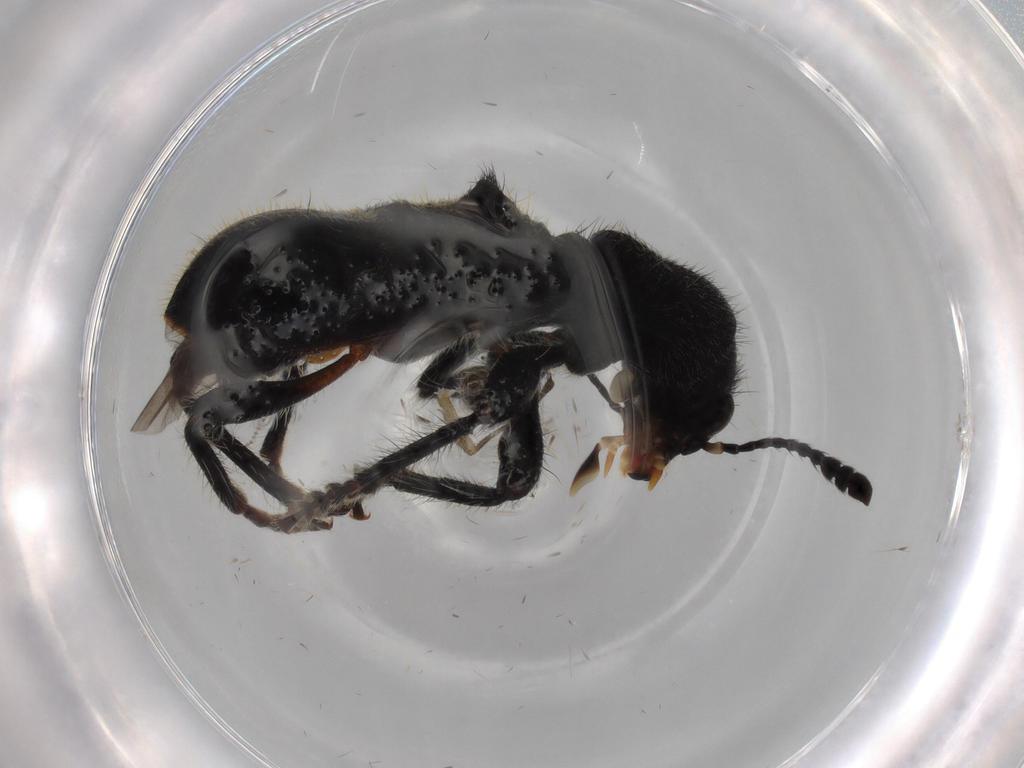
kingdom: Animalia
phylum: Arthropoda
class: Insecta
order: Coleoptera
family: Cleridae
